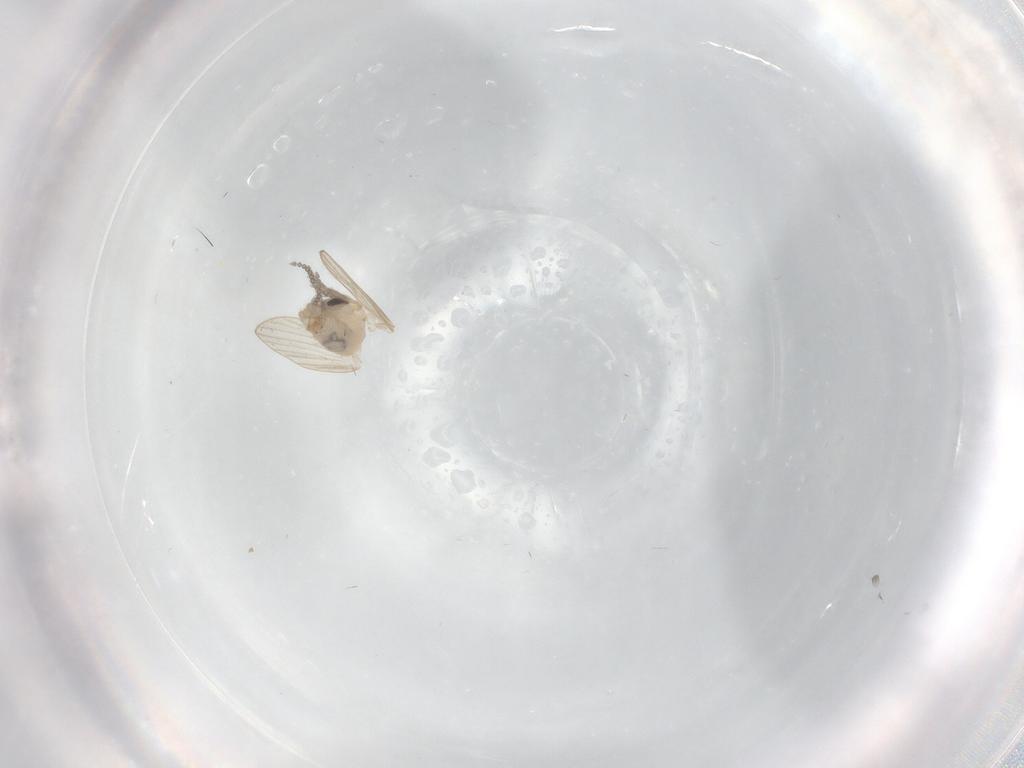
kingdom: Animalia
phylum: Arthropoda
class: Insecta
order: Diptera
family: Psychodidae
